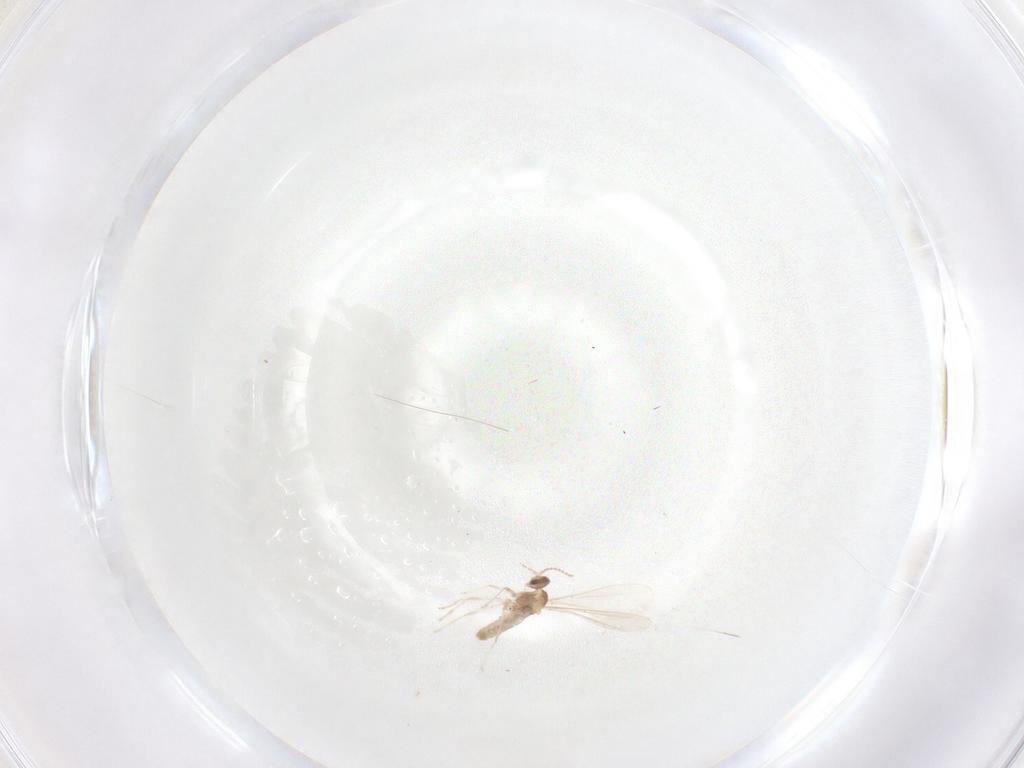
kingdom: Animalia
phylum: Arthropoda
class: Insecta
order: Diptera
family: Cecidomyiidae
